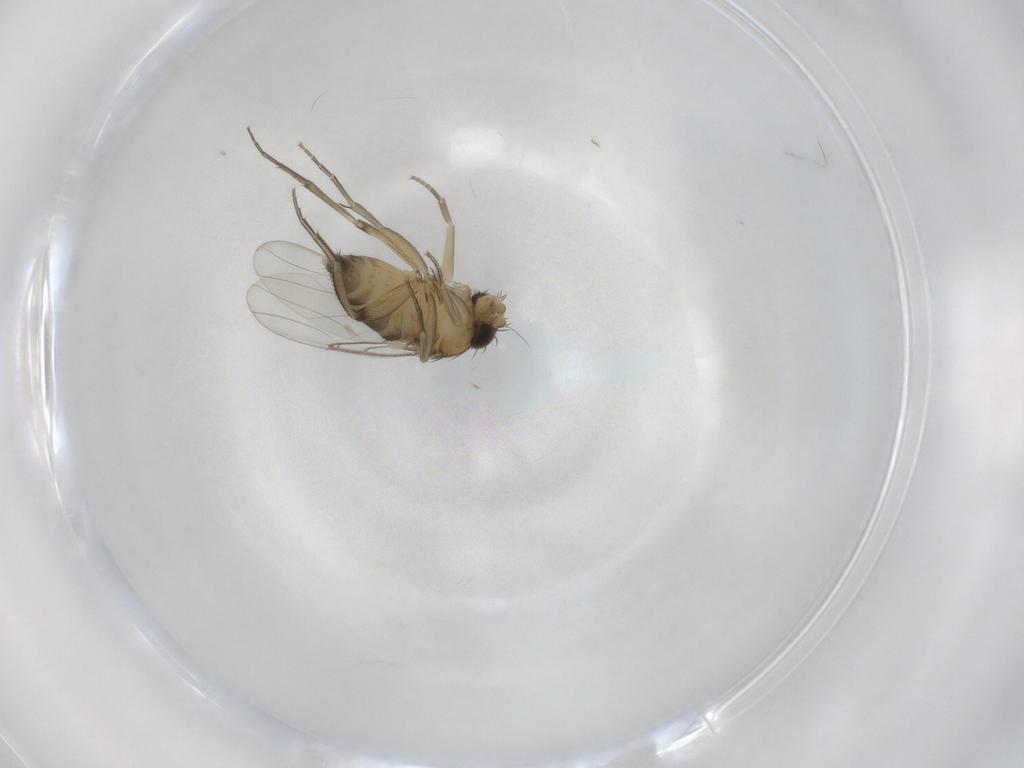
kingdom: Animalia
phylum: Arthropoda
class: Insecta
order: Diptera
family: Phoridae
